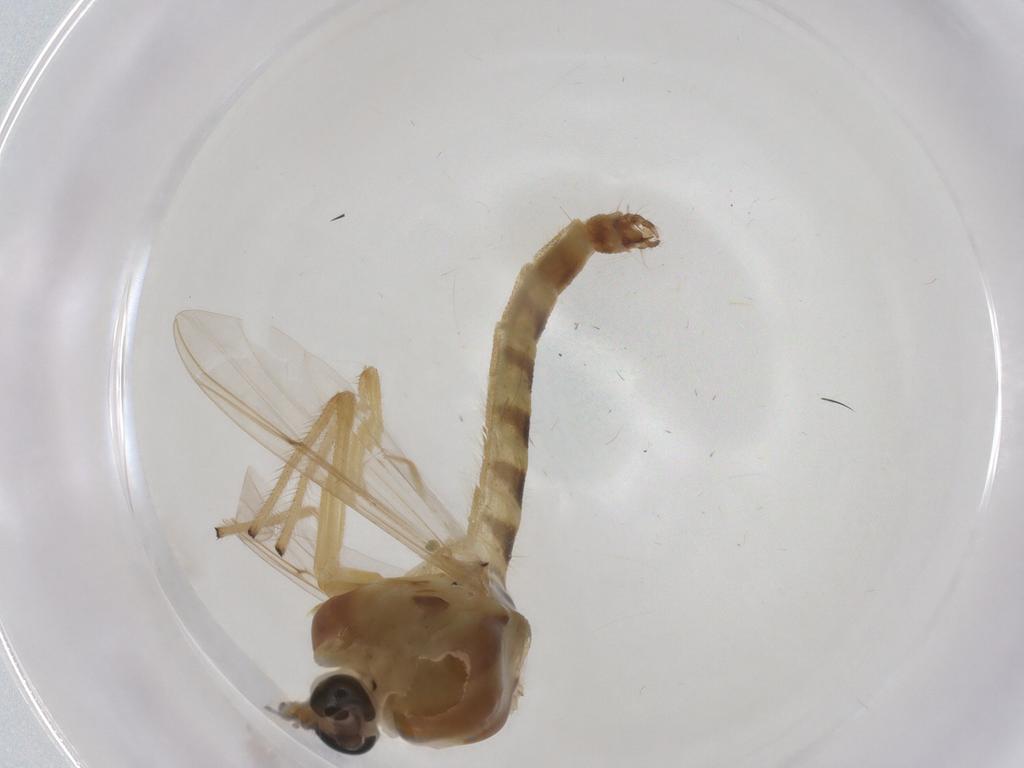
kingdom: Animalia
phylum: Arthropoda
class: Insecta
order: Diptera
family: Chironomidae
